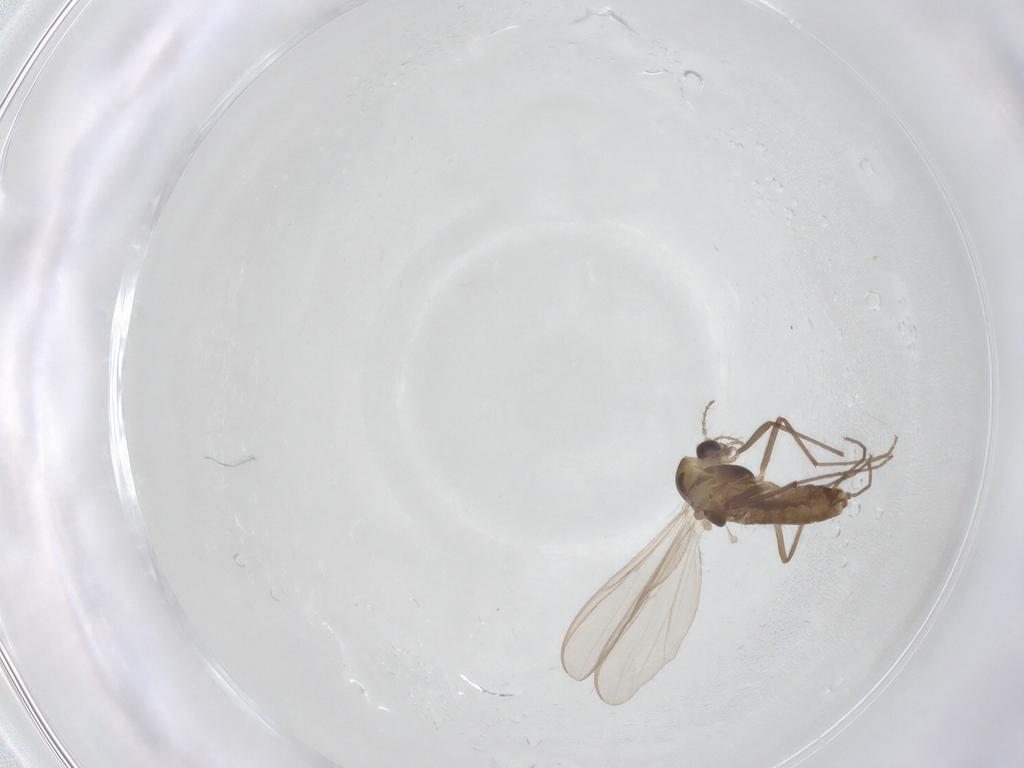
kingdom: Animalia
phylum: Arthropoda
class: Insecta
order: Diptera
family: Chironomidae
